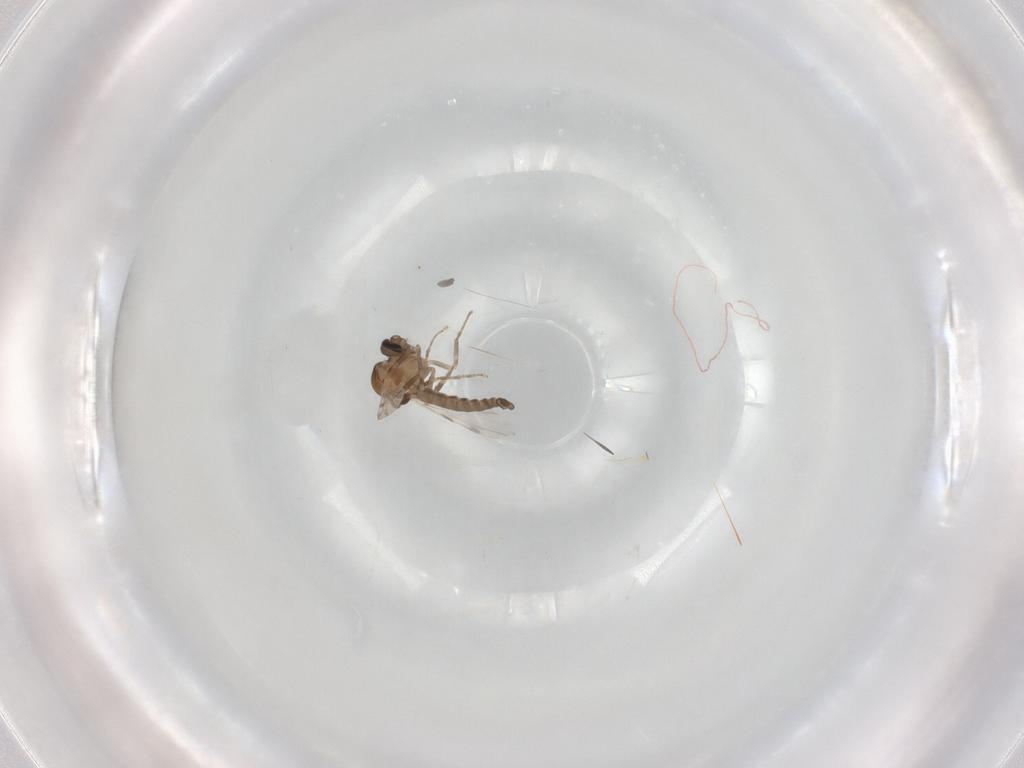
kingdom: Animalia
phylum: Arthropoda
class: Insecta
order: Diptera
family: Ceratopogonidae
